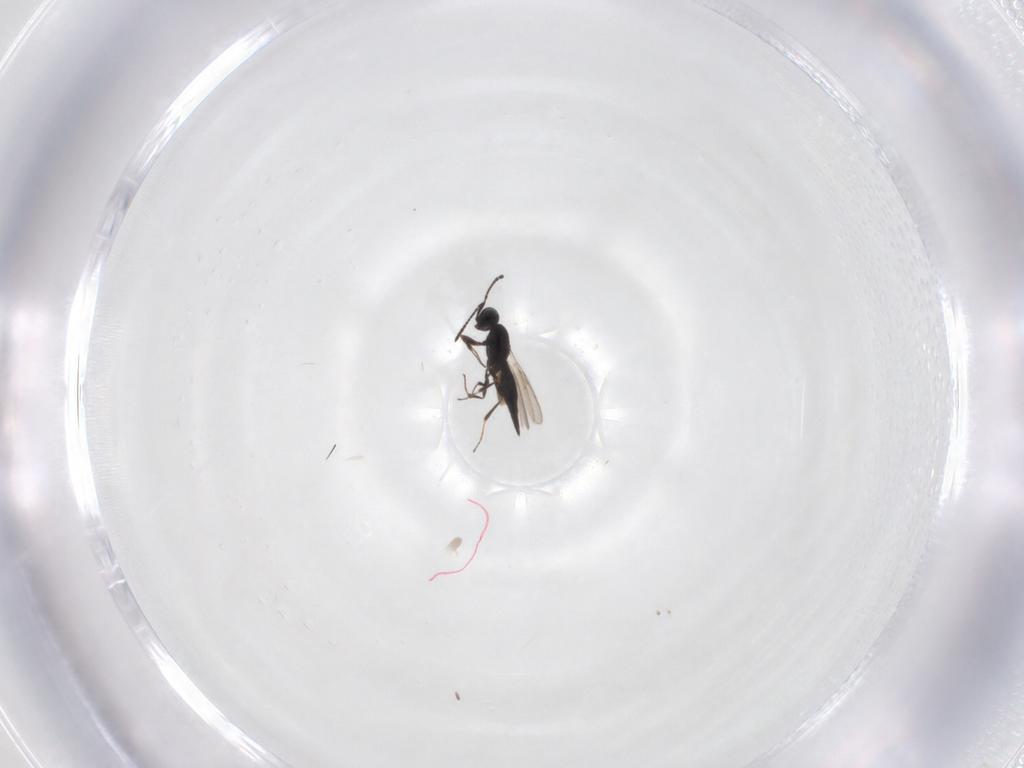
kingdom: Animalia
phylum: Arthropoda
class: Insecta
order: Hymenoptera
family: Scelionidae
